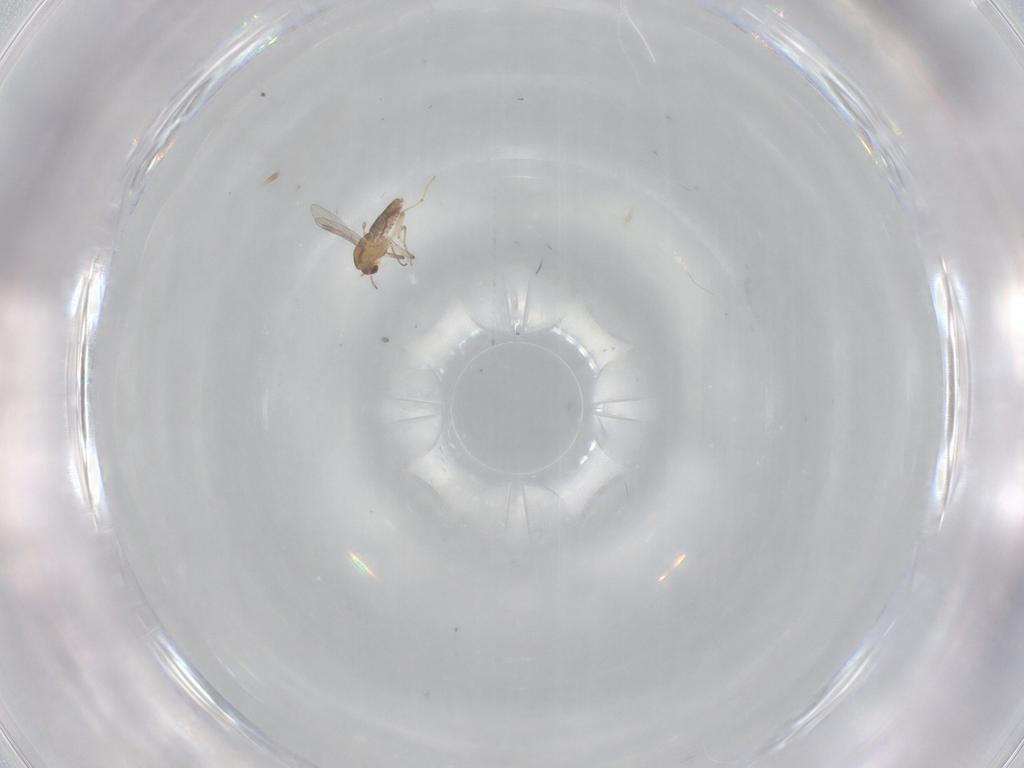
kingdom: Animalia
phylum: Arthropoda
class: Insecta
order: Diptera
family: Chironomidae
